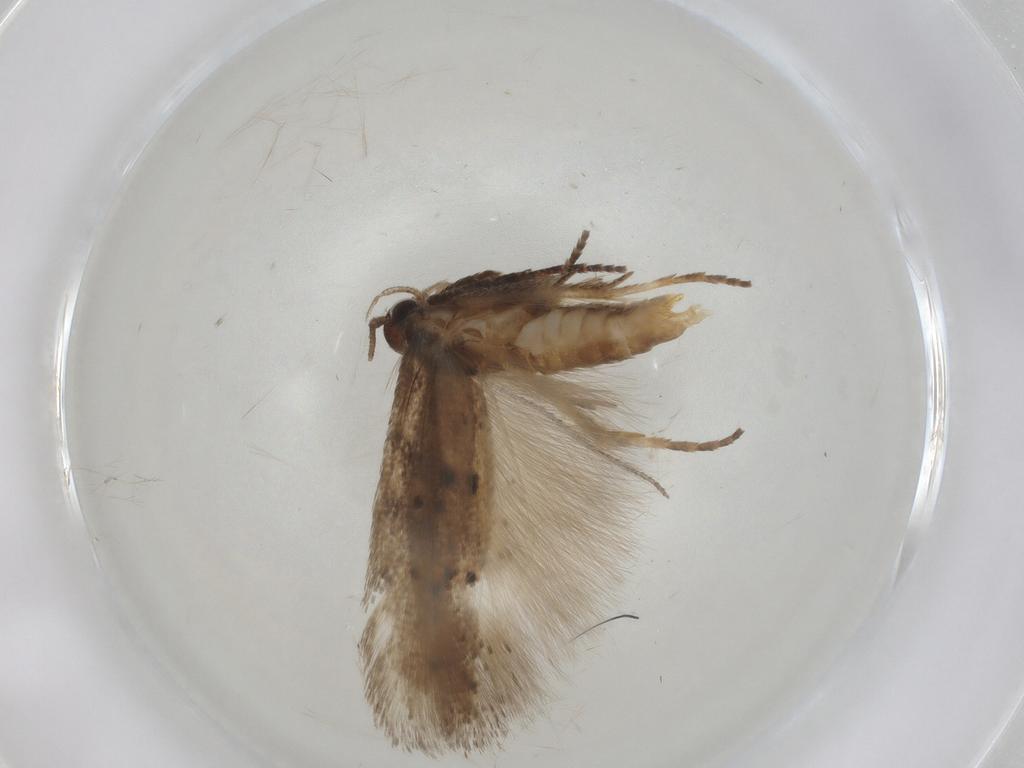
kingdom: Animalia
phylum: Arthropoda
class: Insecta
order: Lepidoptera
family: Gelechiidae
